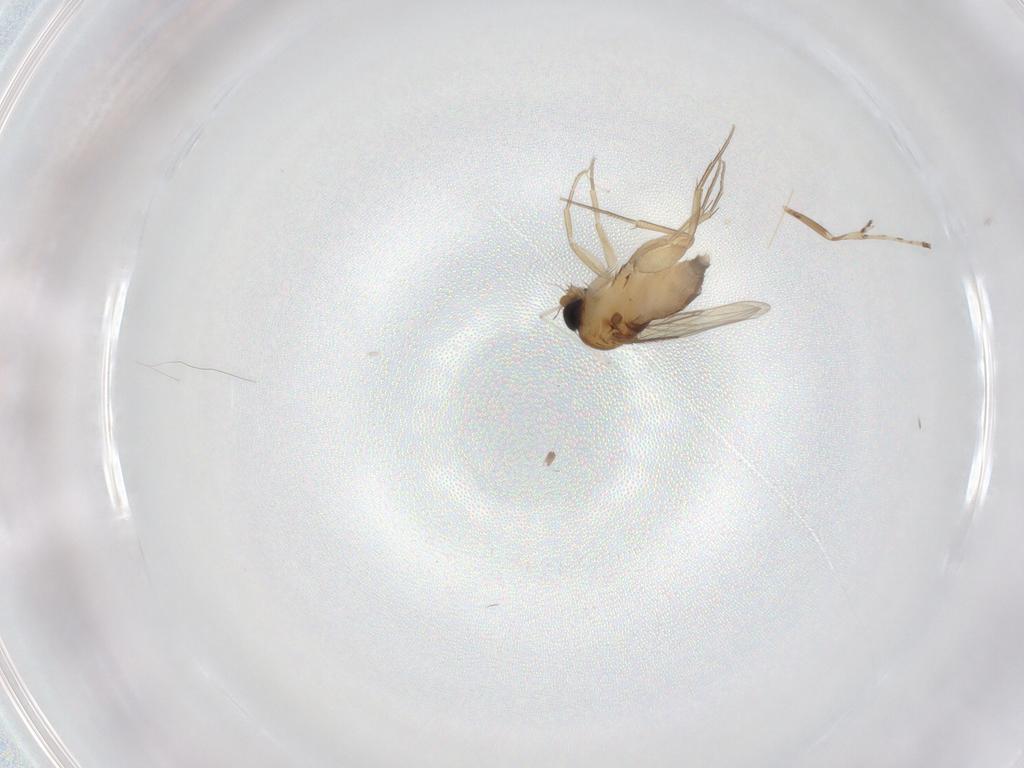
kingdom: Animalia
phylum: Arthropoda
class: Insecta
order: Diptera
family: Phoridae
